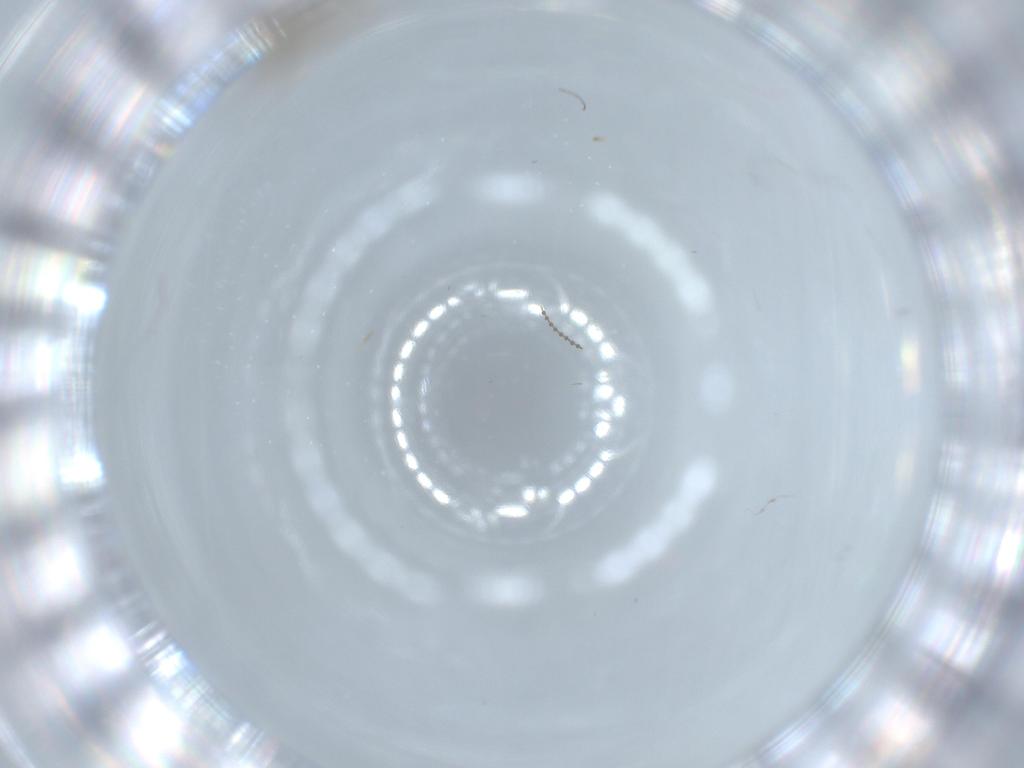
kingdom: Animalia
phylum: Arthropoda
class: Insecta
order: Diptera
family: Cecidomyiidae
